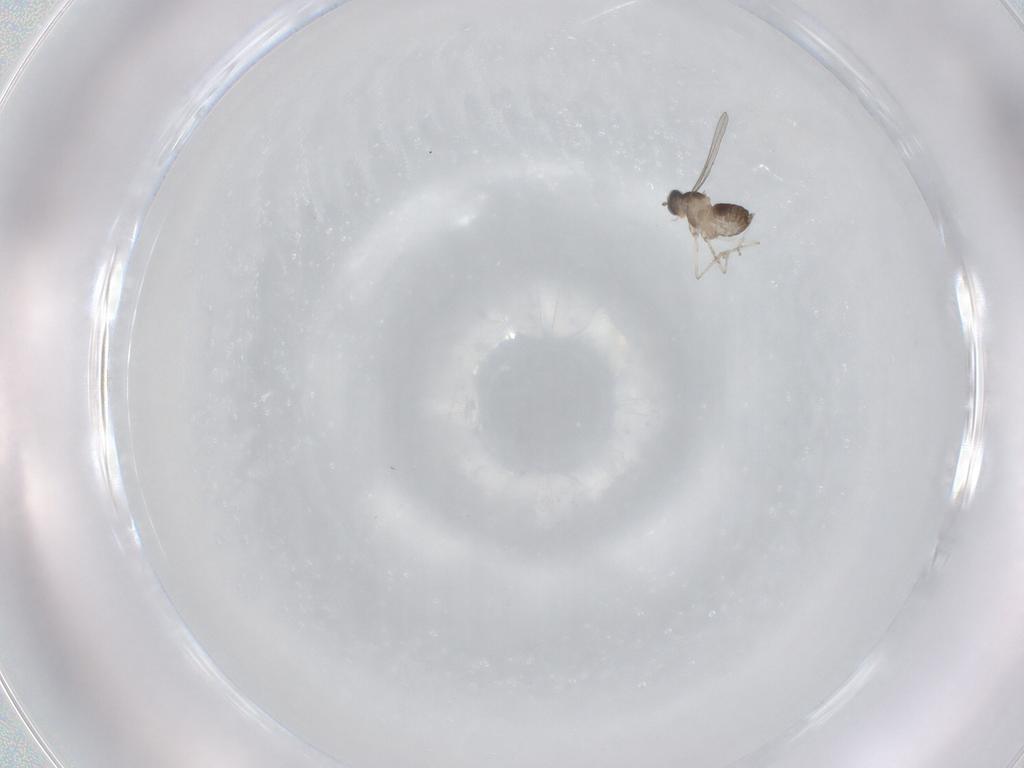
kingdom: Animalia
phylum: Arthropoda
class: Insecta
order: Diptera
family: Cecidomyiidae
